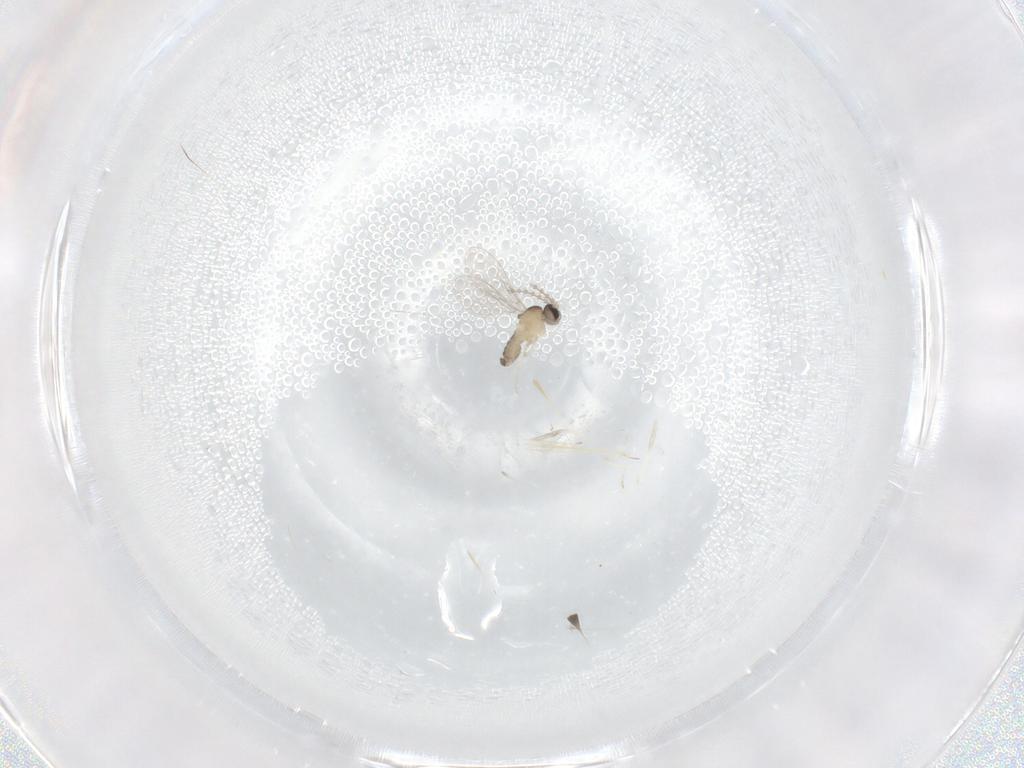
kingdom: Animalia
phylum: Arthropoda
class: Insecta
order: Diptera
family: Cecidomyiidae
